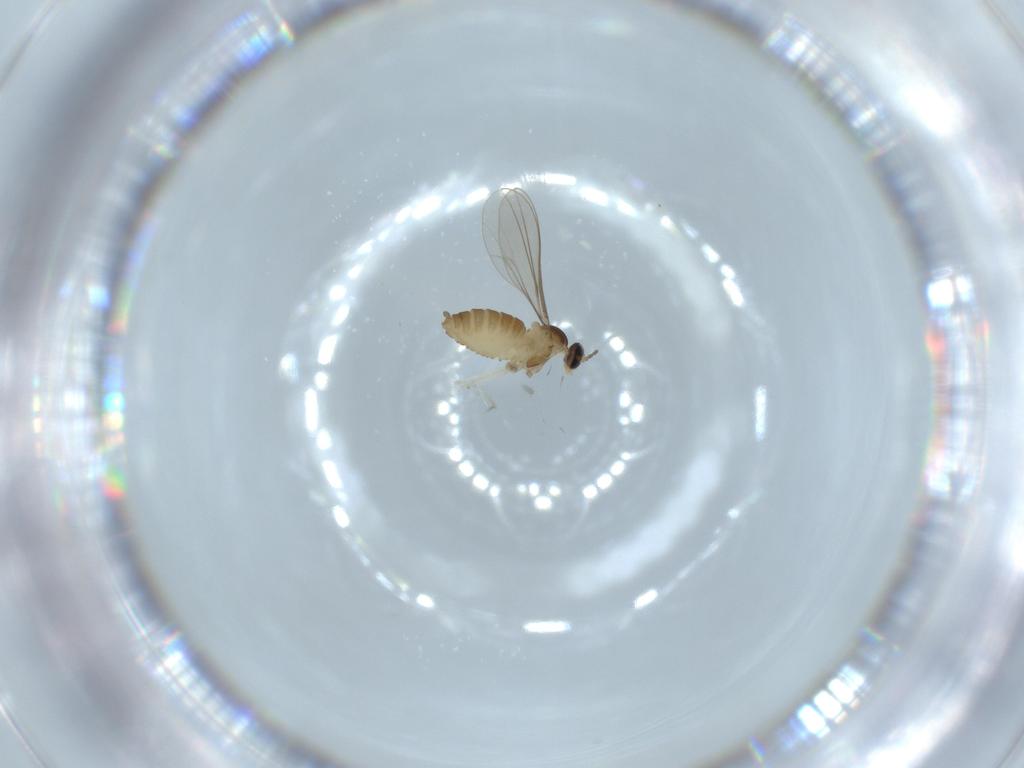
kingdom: Animalia
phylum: Arthropoda
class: Insecta
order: Diptera
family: Cecidomyiidae
